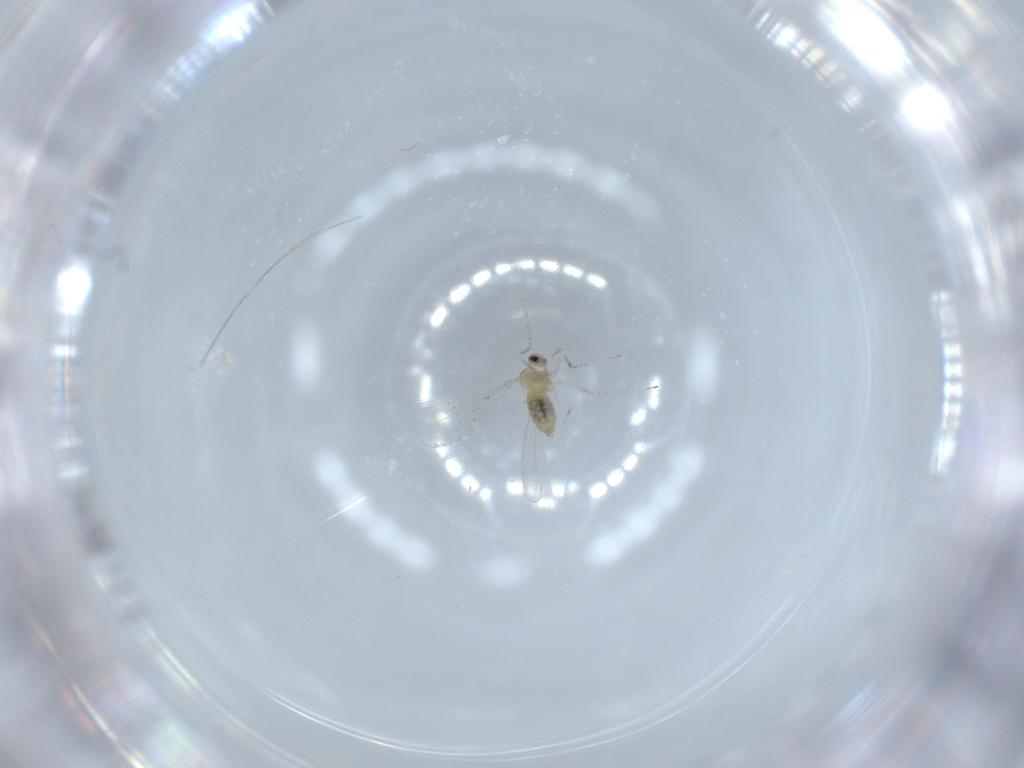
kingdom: Animalia
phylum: Arthropoda
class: Insecta
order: Diptera
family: Cecidomyiidae
